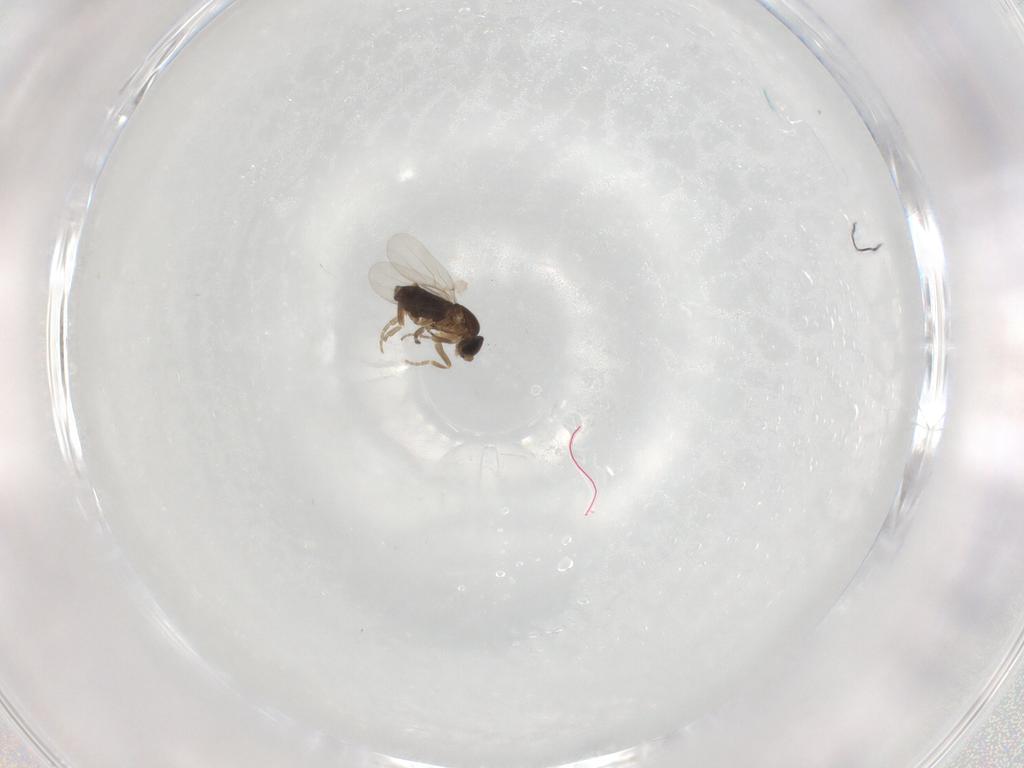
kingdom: Animalia
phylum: Arthropoda
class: Insecta
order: Diptera
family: Phoridae
